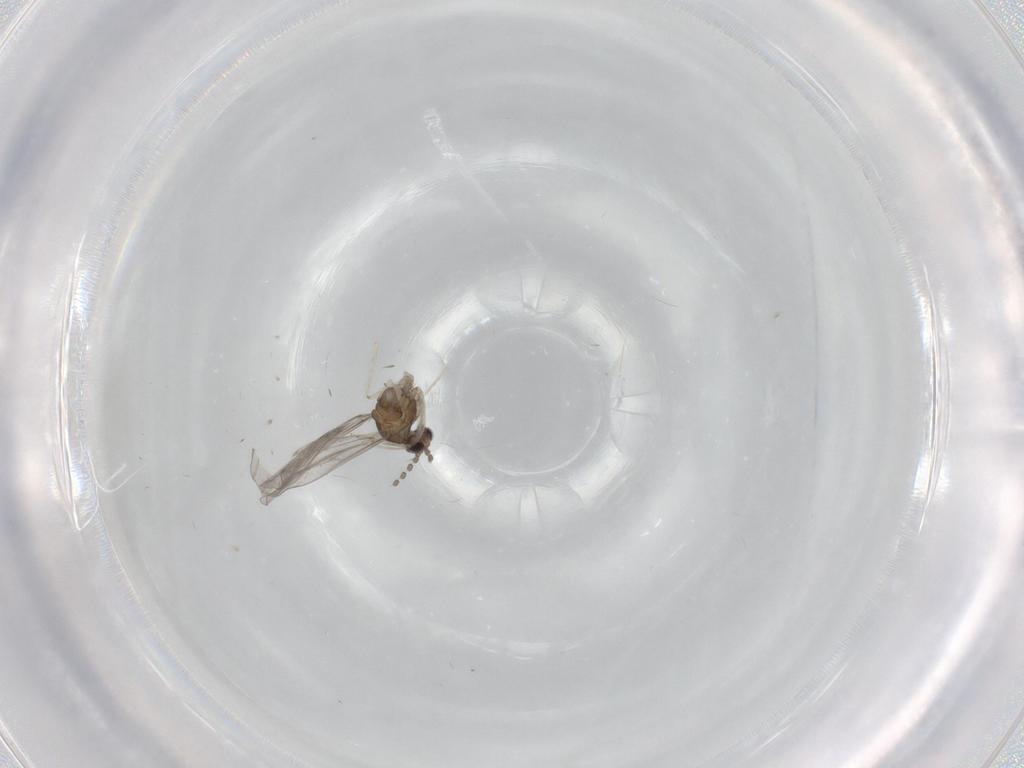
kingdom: Animalia
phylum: Arthropoda
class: Insecta
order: Diptera
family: Cecidomyiidae
